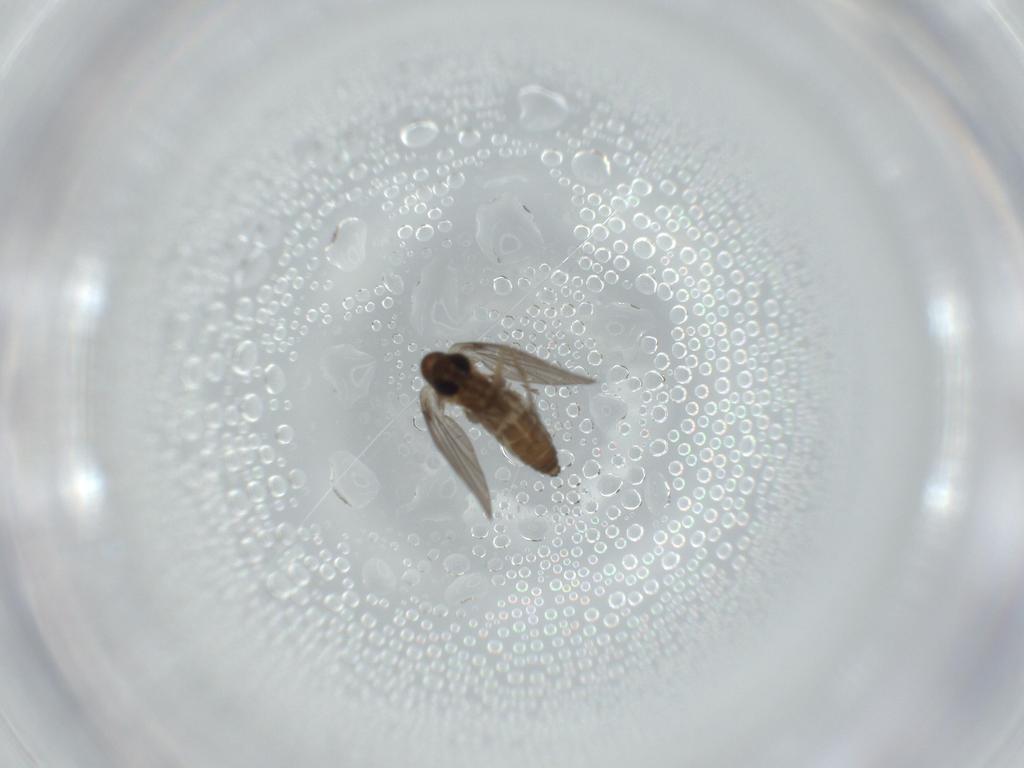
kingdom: Animalia
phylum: Arthropoda
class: Insecta
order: Diptera
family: Psychodidae
